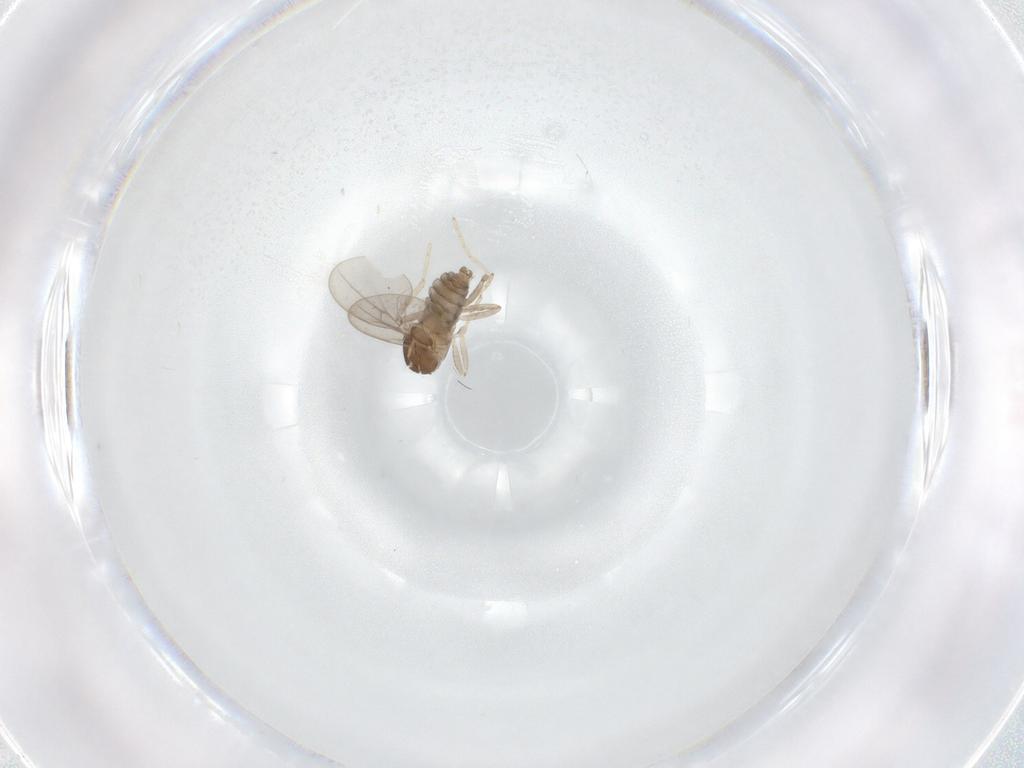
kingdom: Animalia
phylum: Arthropoda
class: Insecta
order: Diptera
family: Cecidomyiidae
